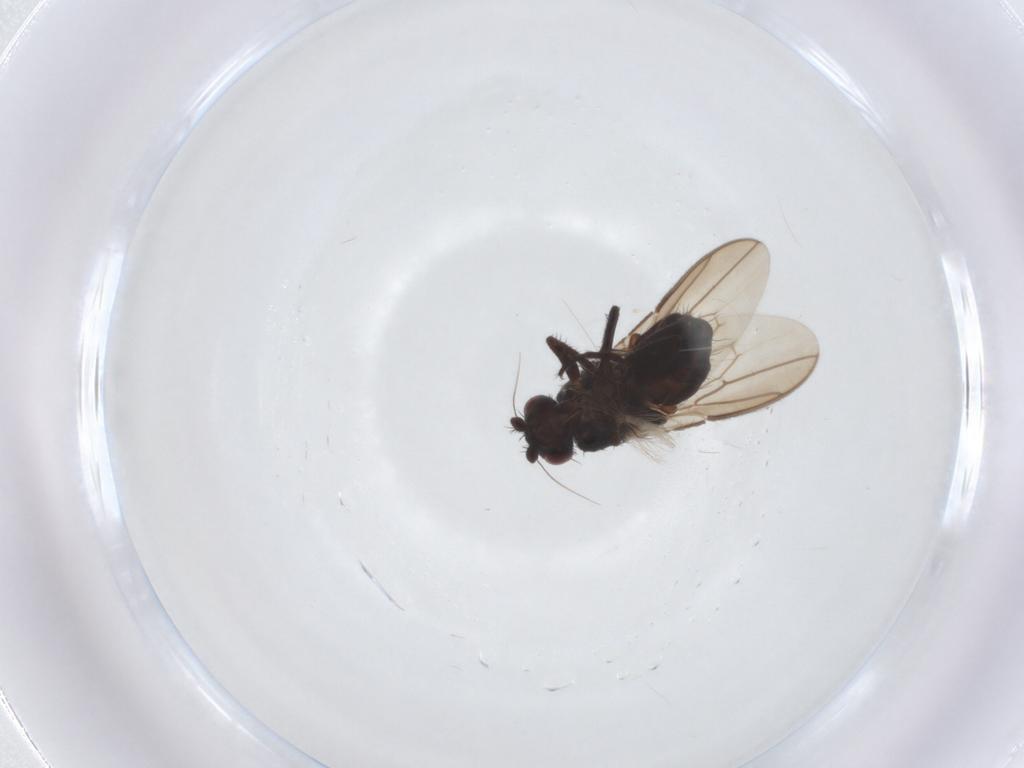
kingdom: Animalia
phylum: Arthropoda
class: Insecta
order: Diptera
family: Sphaeroceridae
